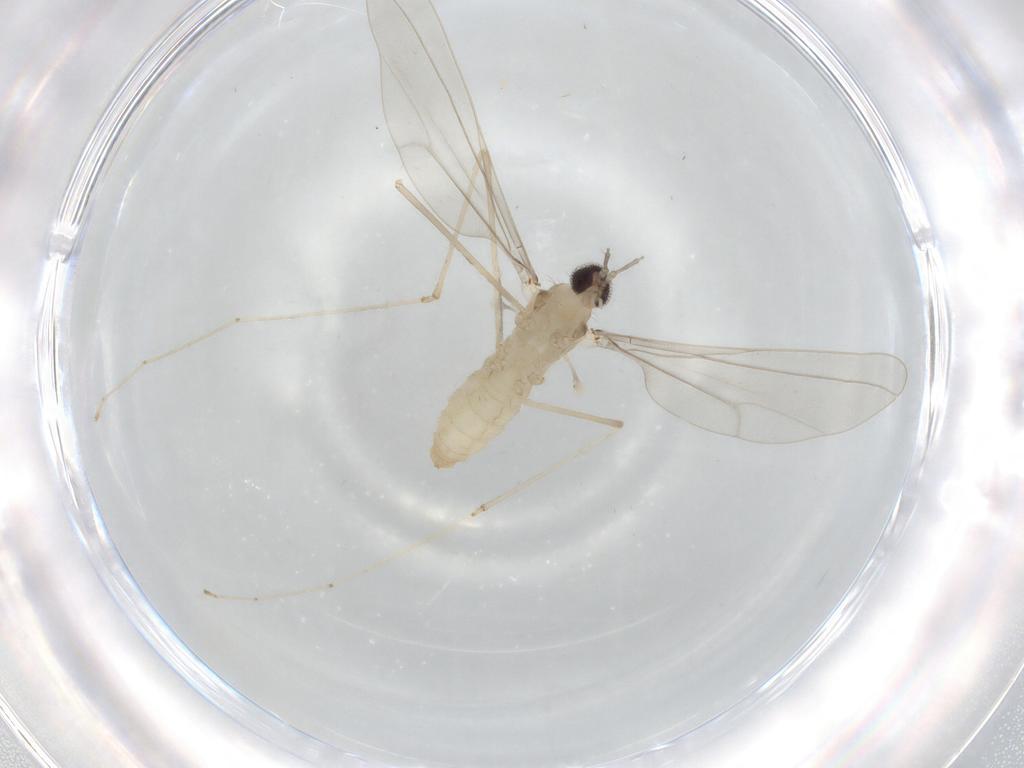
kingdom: Animalia
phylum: Arthropoda
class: Insecta
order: Diptera
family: Cecidomyiidae
